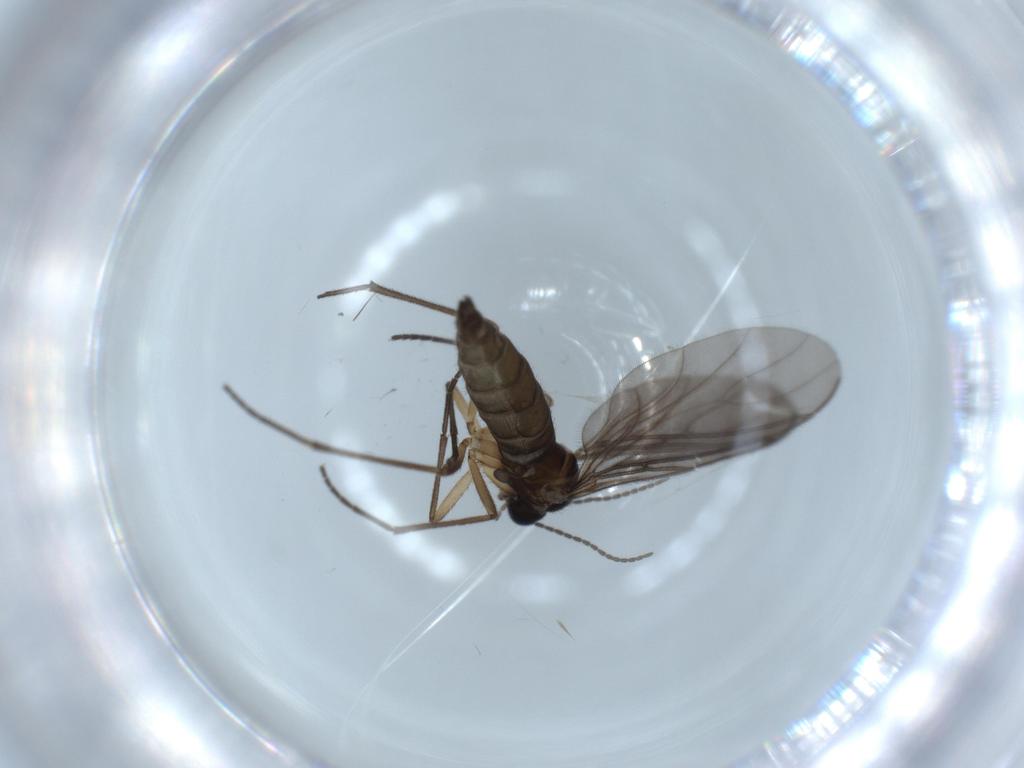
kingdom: Animalia
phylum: Arthropoda
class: Insecta
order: Diptera
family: Sciaridae
